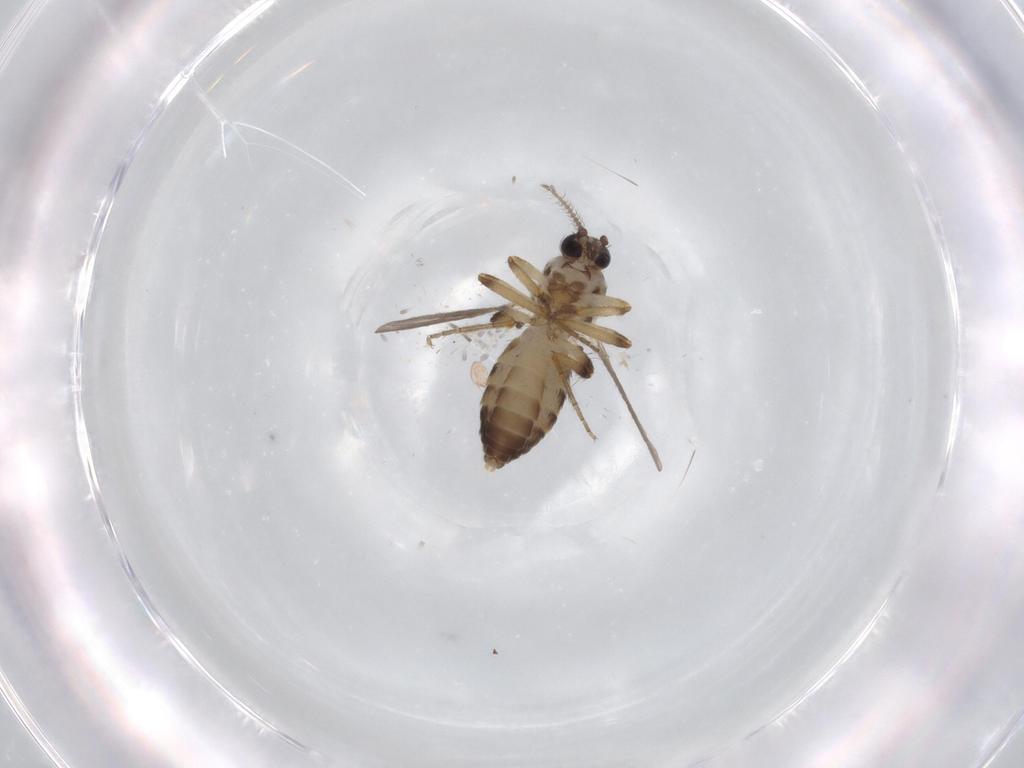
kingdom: Animalia
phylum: Arthropoda
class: Insecta
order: Diptera
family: Ceratopogonidae
